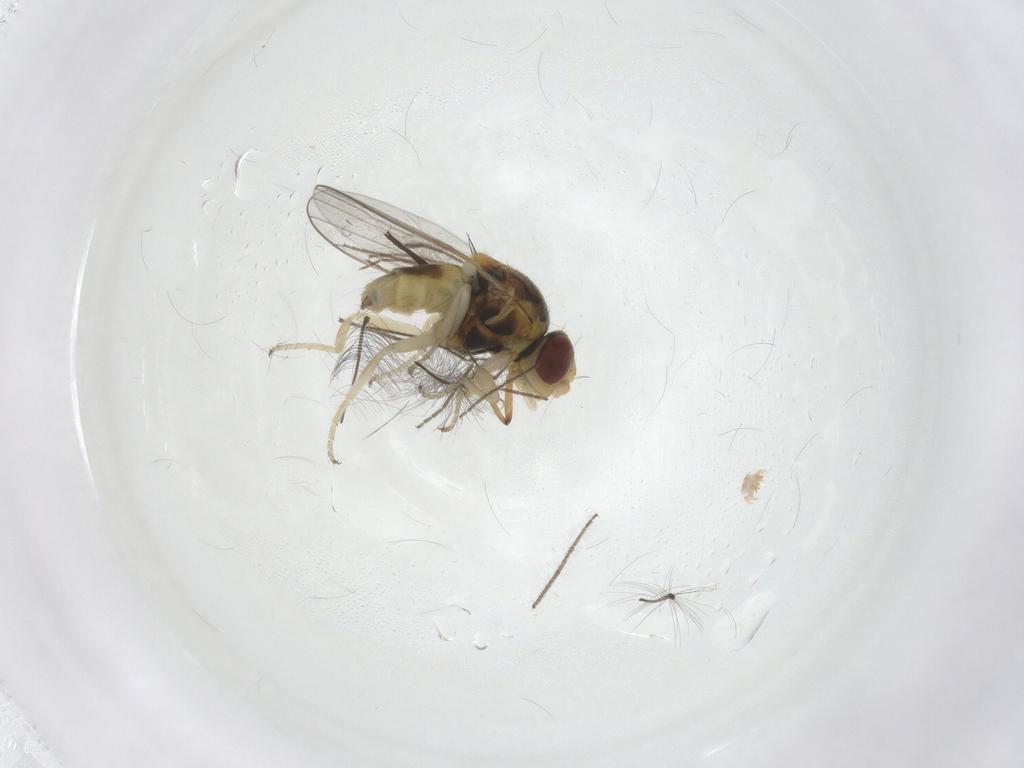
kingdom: Animalia
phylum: Arthropoda
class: Insecta
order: Diptera
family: Chloropidae
